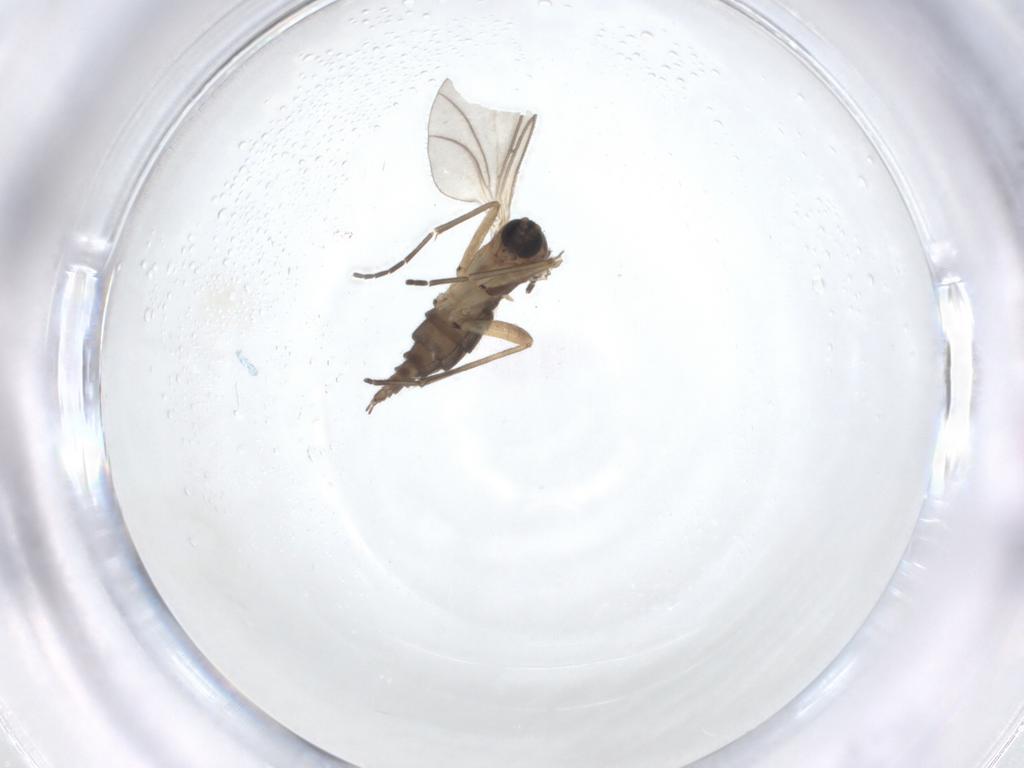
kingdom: Animalia
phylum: Arthropoda
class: Insecta
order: Diptera
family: Sciaridae
